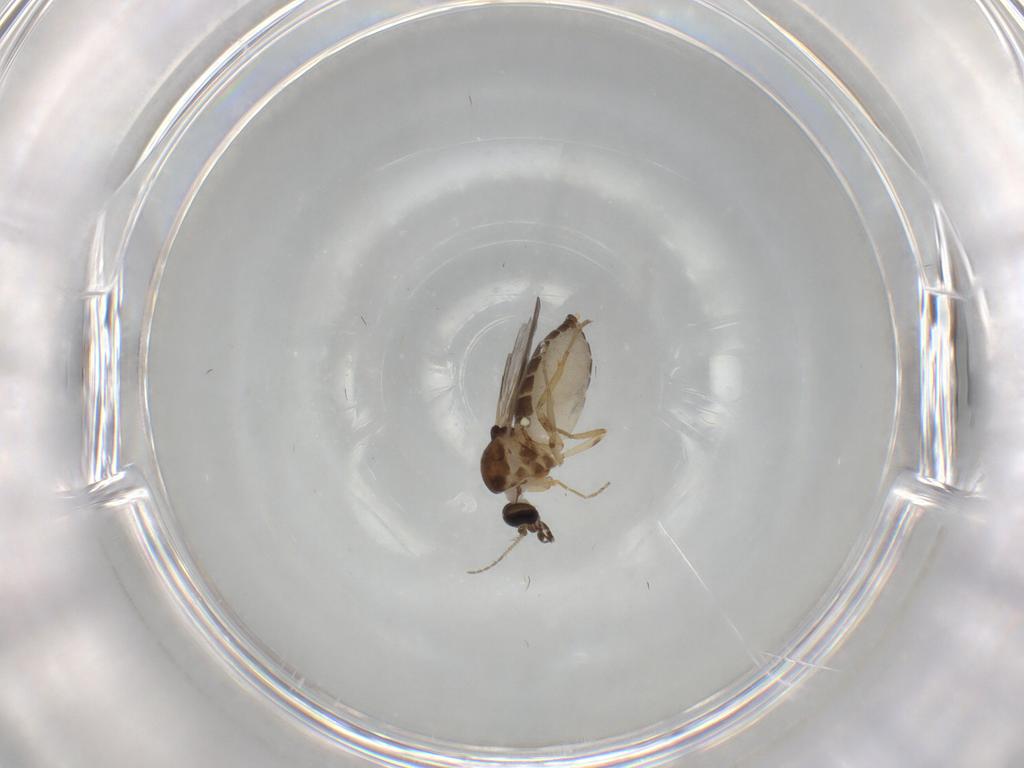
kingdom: Animalia
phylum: Arthropoda
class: Insecta
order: Diptera
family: Ceratopogonidae
